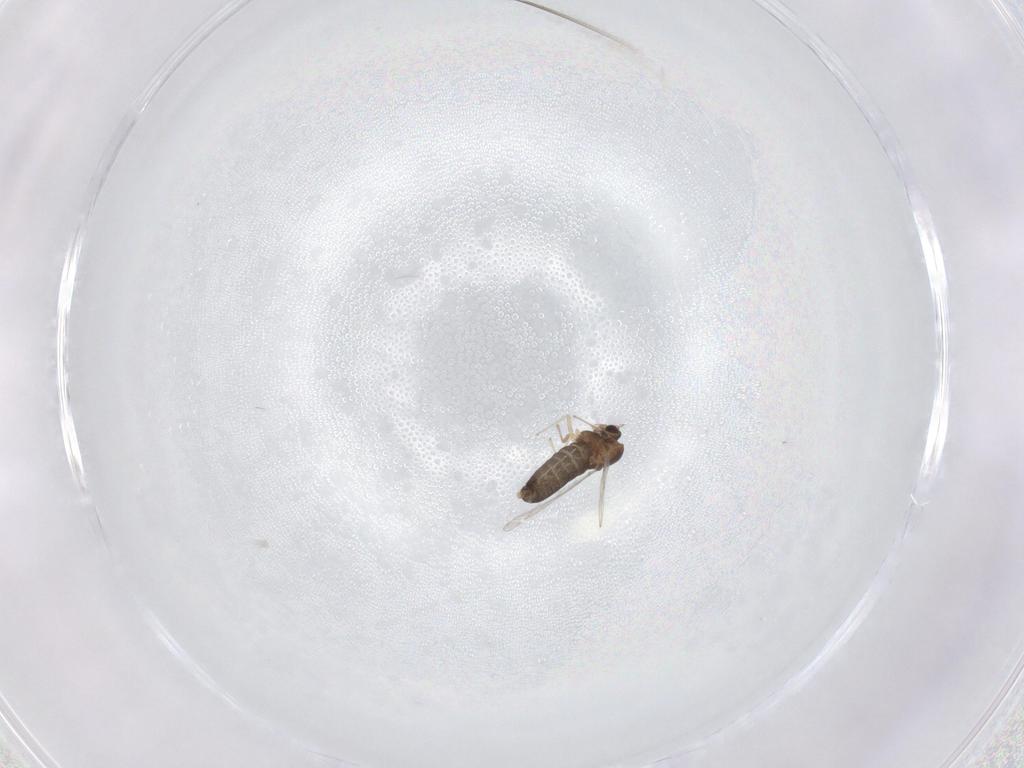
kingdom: Animalia
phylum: Arthropoda
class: Insecta
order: Diptera
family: Chironomidae
